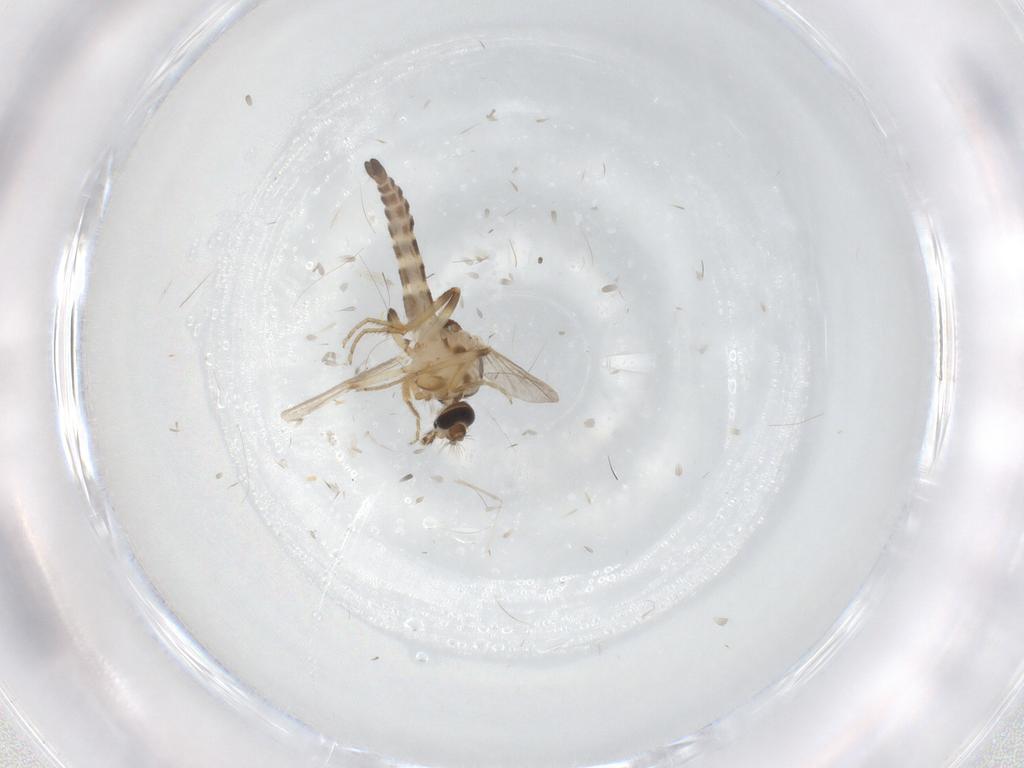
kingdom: Animalia
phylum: Arthropoda
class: Insecta
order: Diptera
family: Ceratopogonidae
